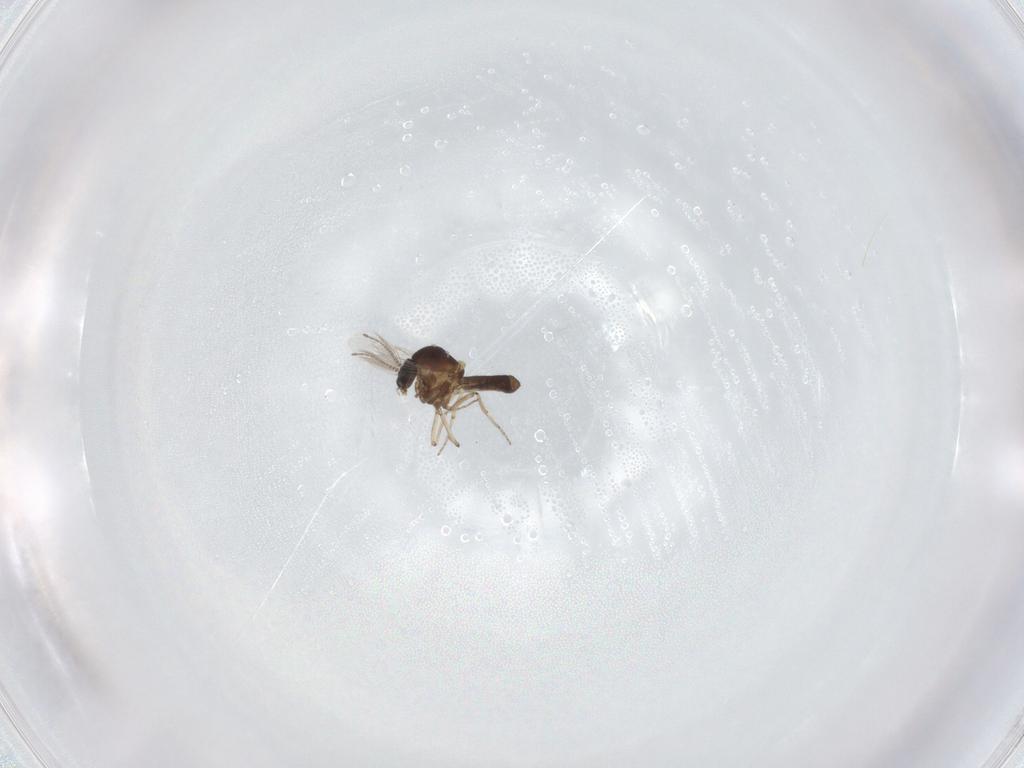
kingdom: Animalia
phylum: Arthropoda
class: Insecta
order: Diptera
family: Ceratopogonidae
